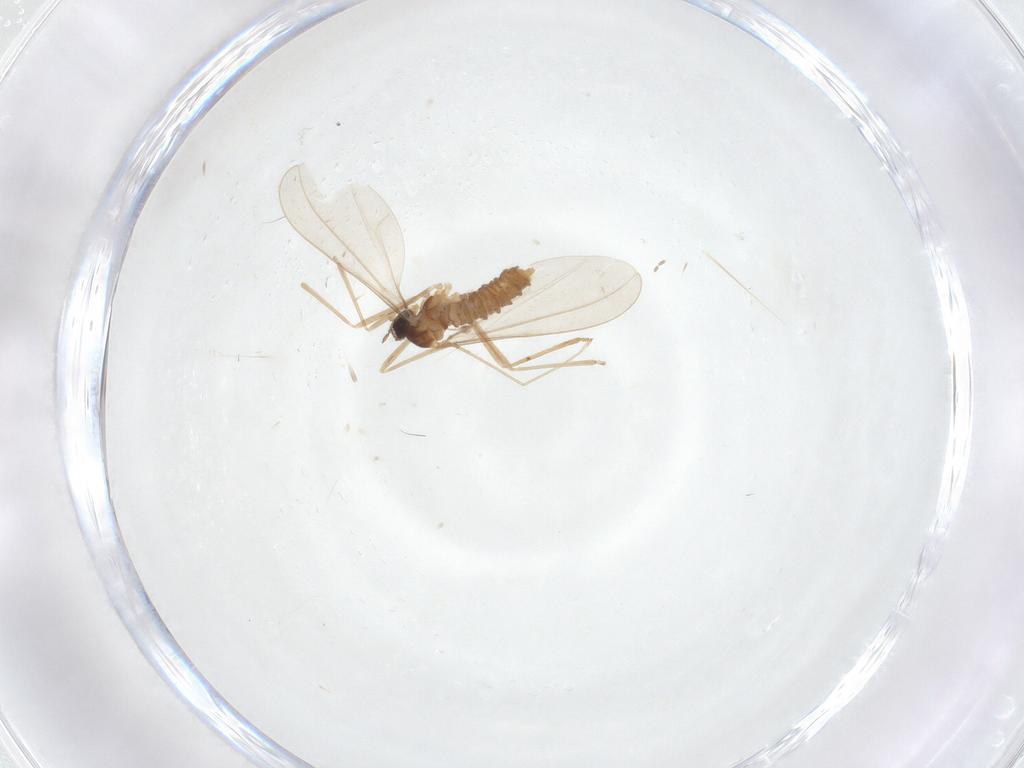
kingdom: Animalia
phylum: Arthropoda
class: Insecta
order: Diptera
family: Cecidomyiidae
